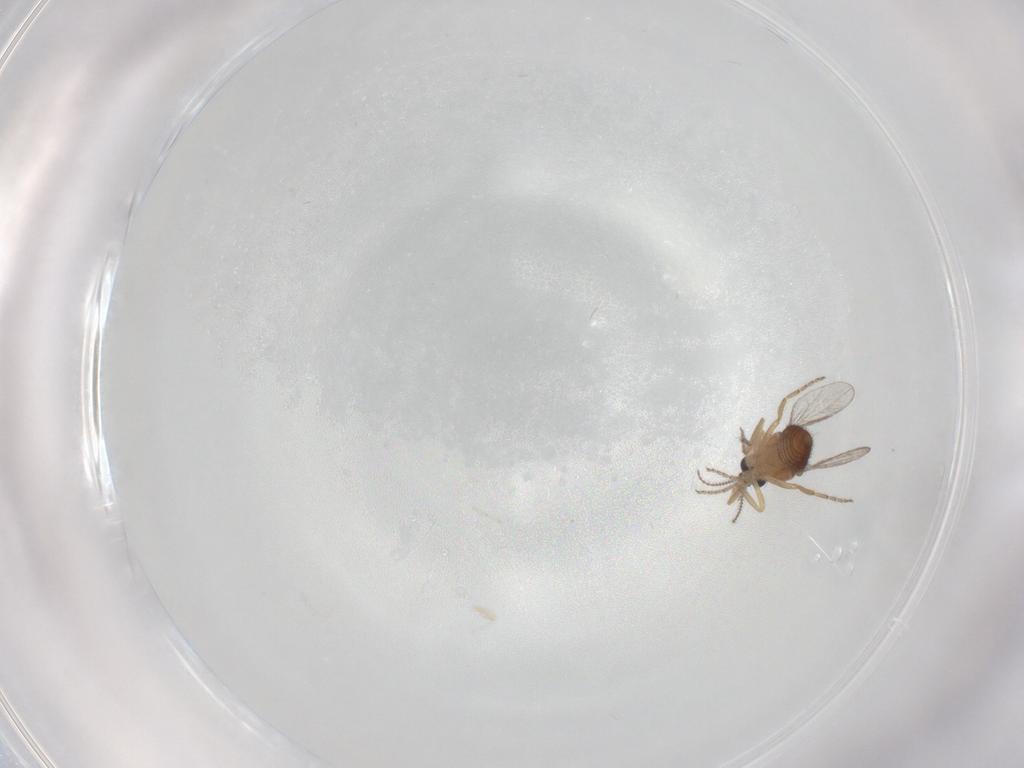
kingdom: Animalia
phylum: Arthropoda
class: Insecta
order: Diptera
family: Ceratopogonidae
